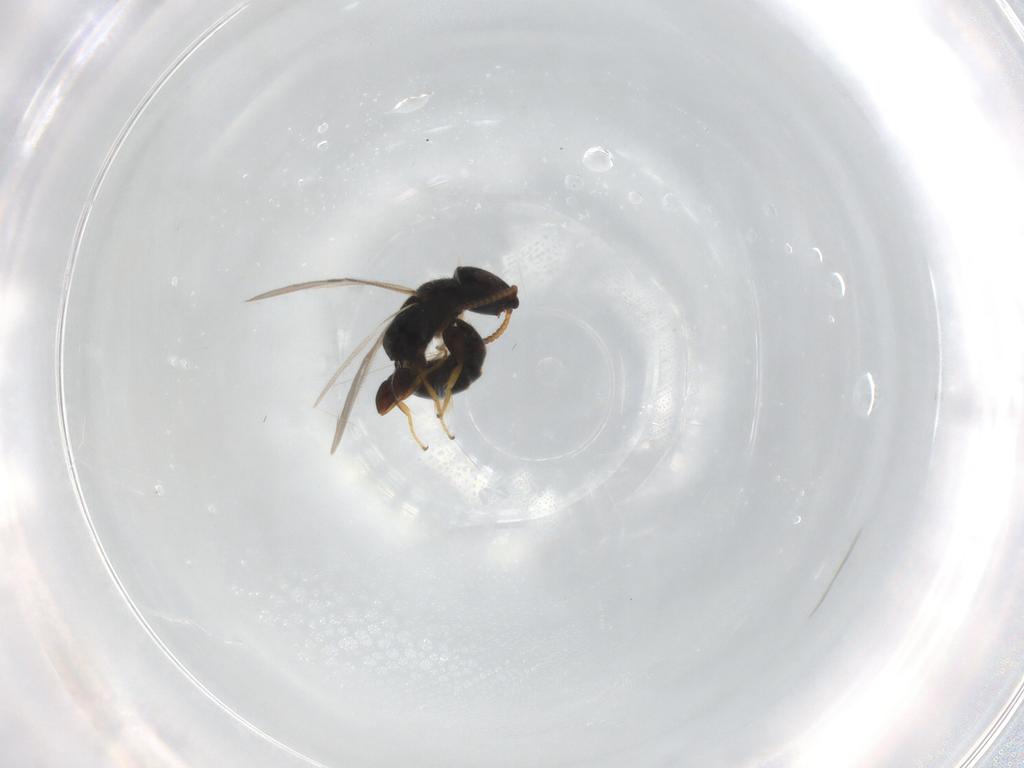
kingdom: Animalia
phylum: Arthropoda
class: Insecta
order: Hymenoptera
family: Bethylidae
